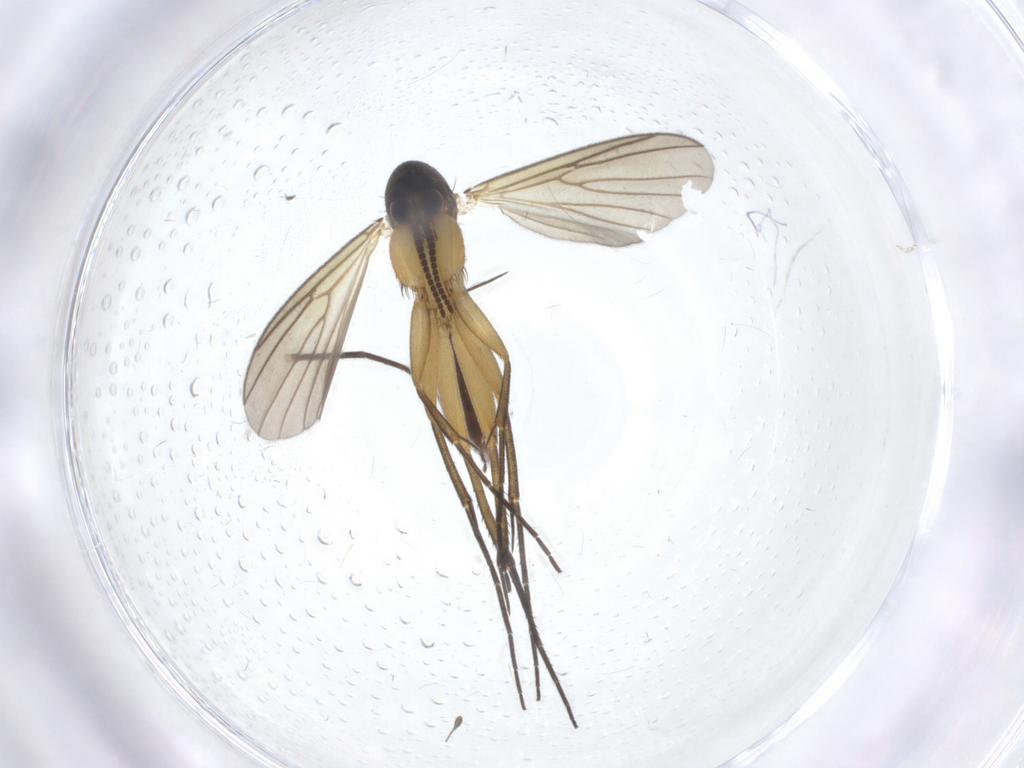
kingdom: Animalia
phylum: Arthropoda
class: Insecta
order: Diptera
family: Mycetophilidae
